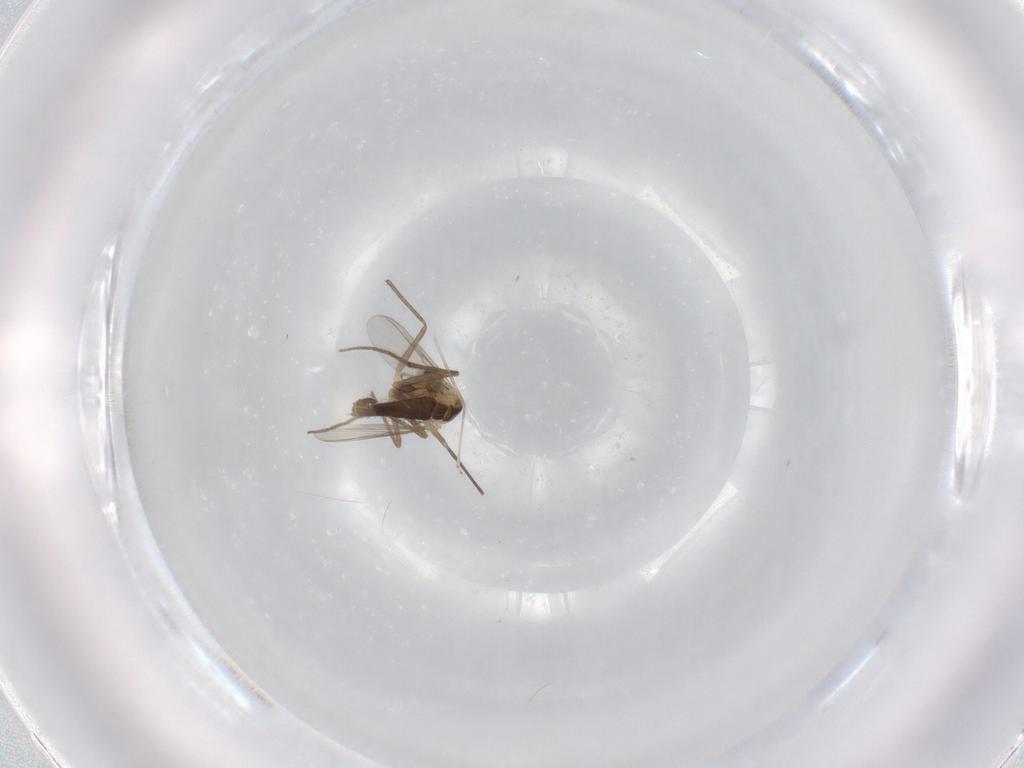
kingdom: Animalia
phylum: Arthropoda
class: Insecta
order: Diptera
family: Chironomidae
